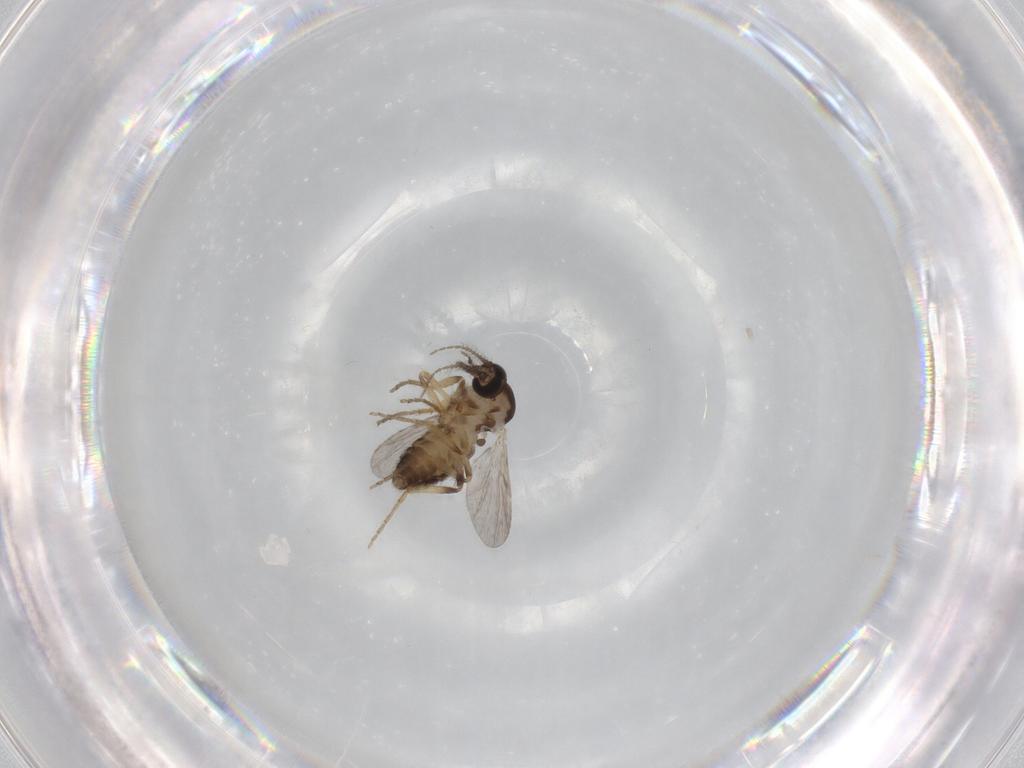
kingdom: Animalia
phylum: Arthropoda
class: Insecta
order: Diptera
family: Ceratopogonidae
